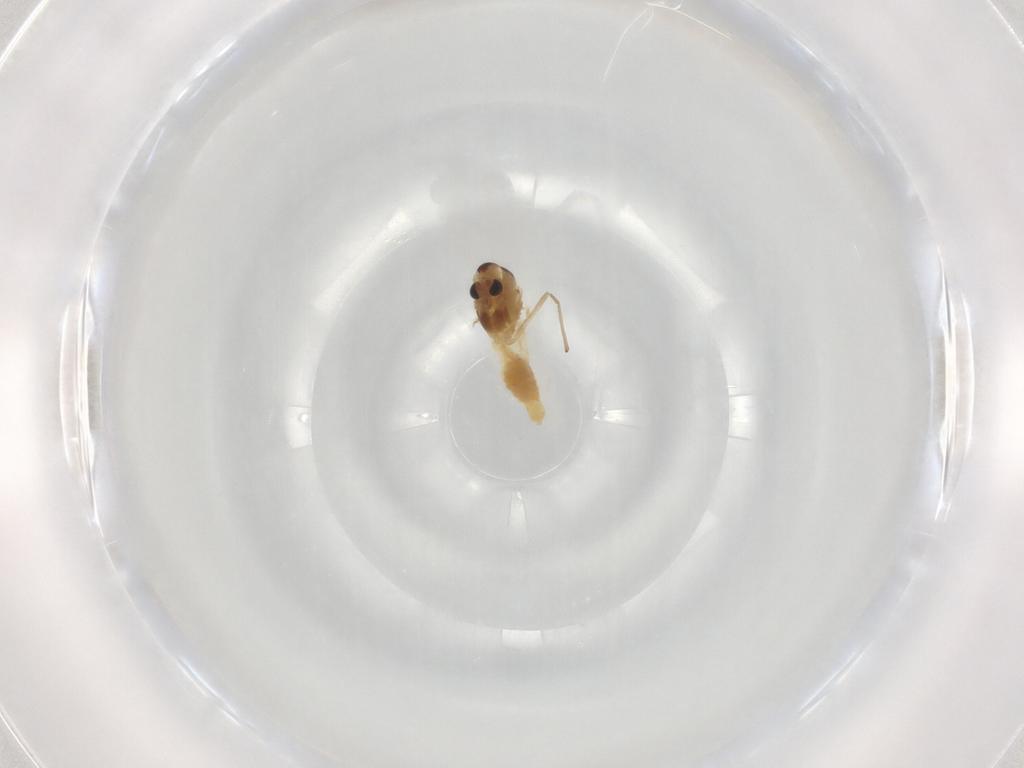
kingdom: Animalia
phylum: Arthropoda
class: Insecta
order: Diptera
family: Chironomidae
